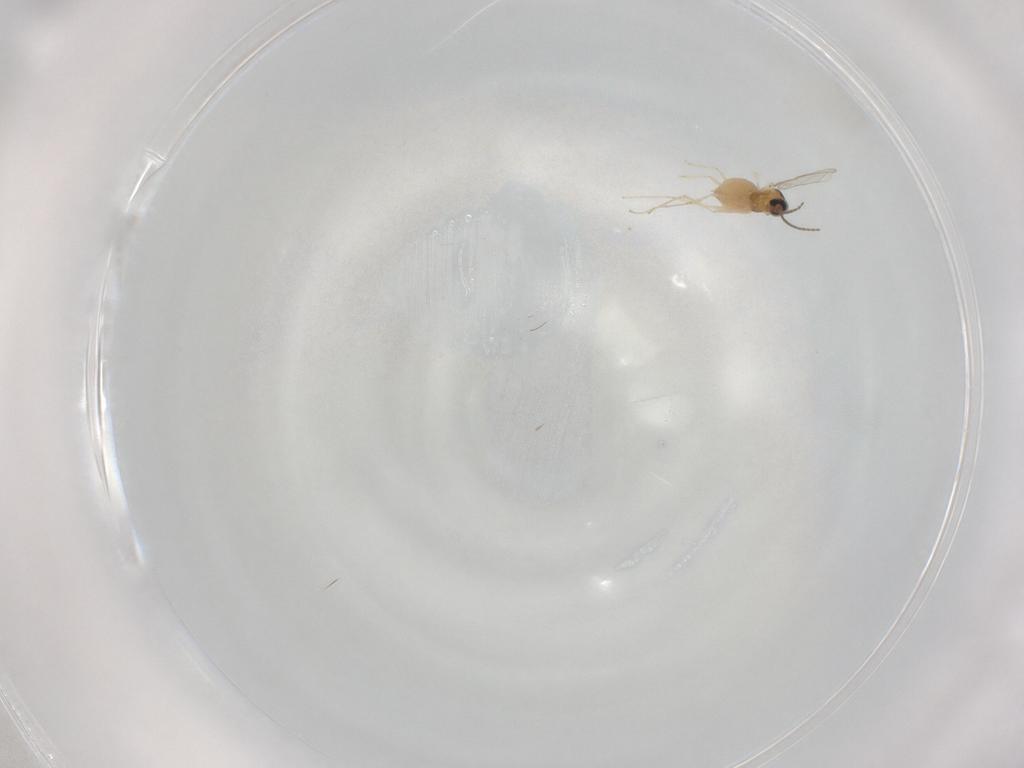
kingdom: Animalia
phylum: Arthropoda
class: Insecta
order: Diptera
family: Cecidomyiidae
